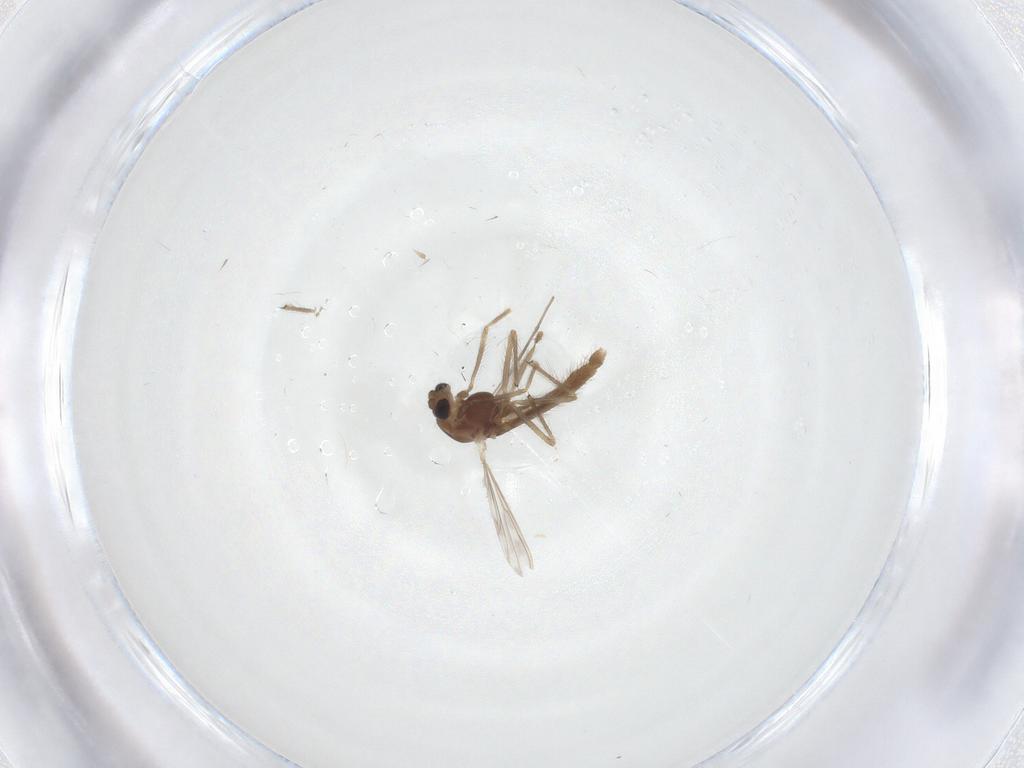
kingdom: Animalia
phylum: Arthropoda
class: Insecta
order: Diptera
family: Chironomidae
